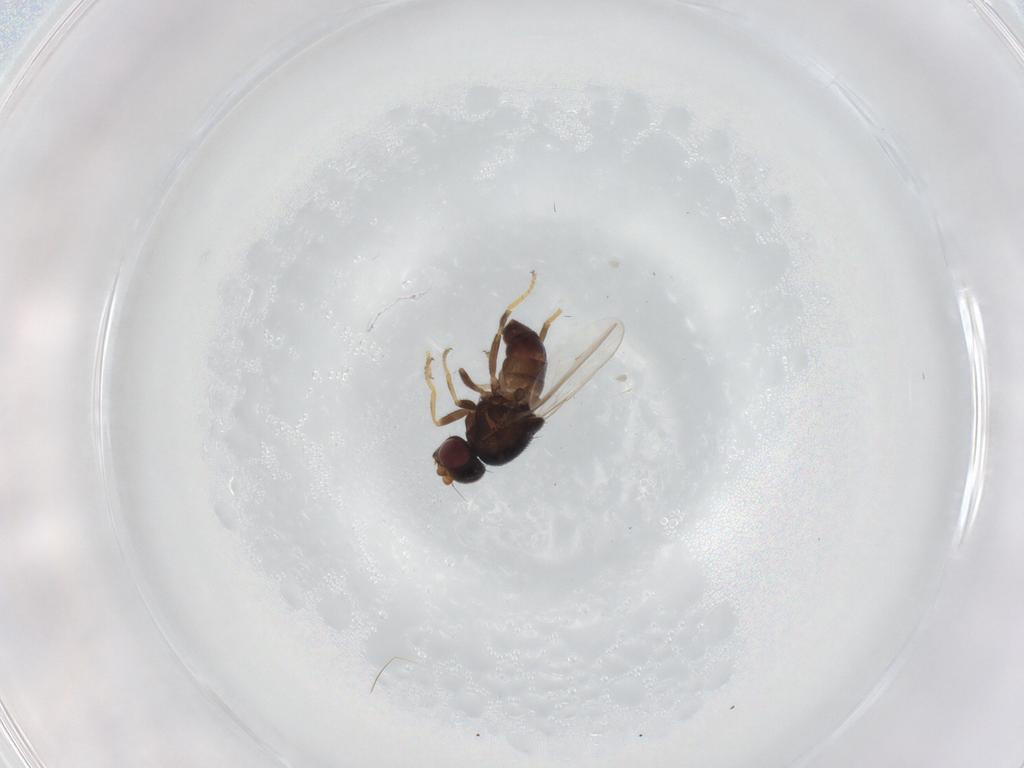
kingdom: Animalia
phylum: Arthropoda
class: Insecta
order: Diptera
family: Chloropidae
